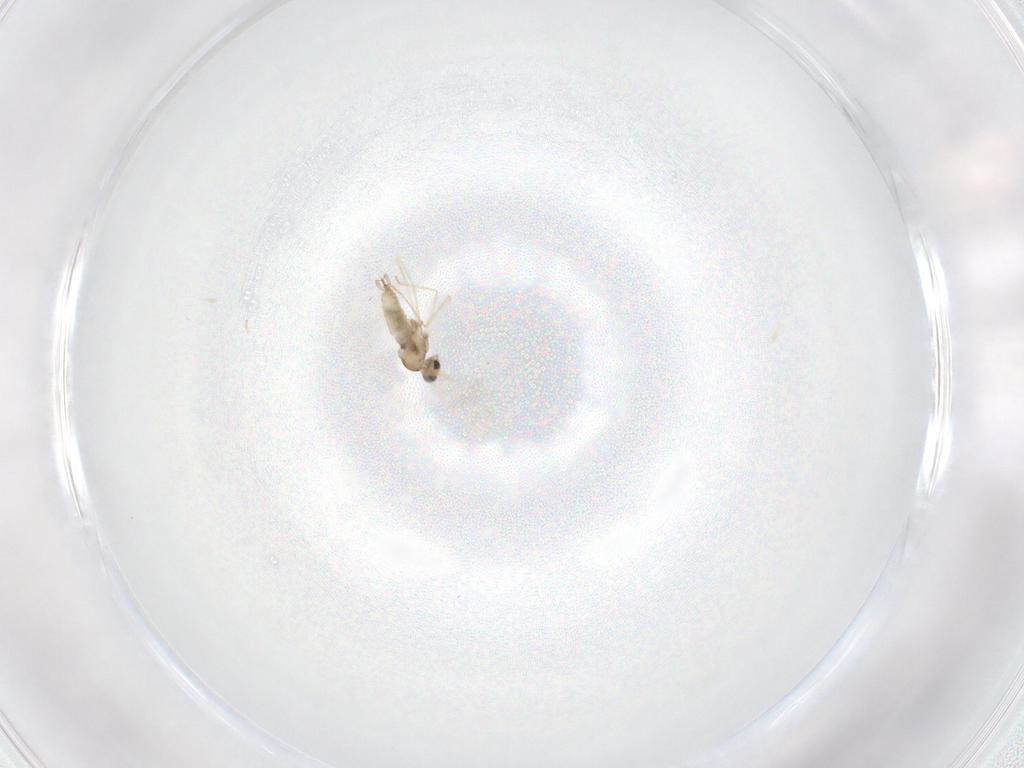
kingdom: Animalia
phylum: Arthropoda
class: Insecta
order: Diptera
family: Cecidomyiidae
